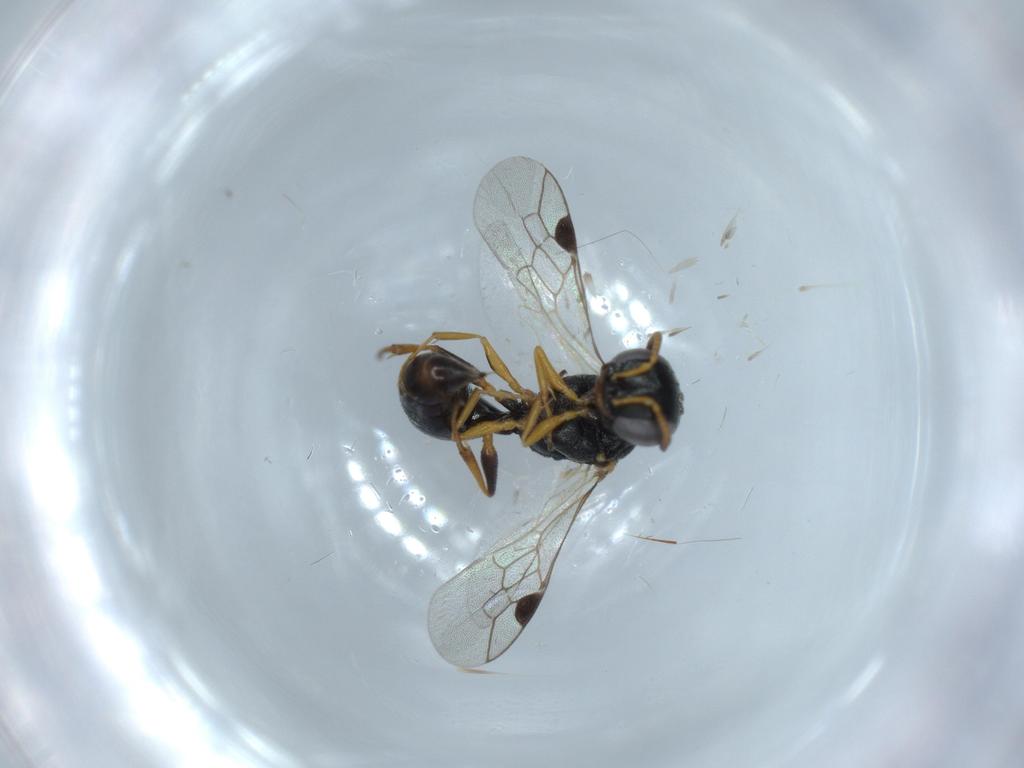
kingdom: Animalia
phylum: Arthropoda
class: Insecta
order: Hymenoptera
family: Pemphredonidae
